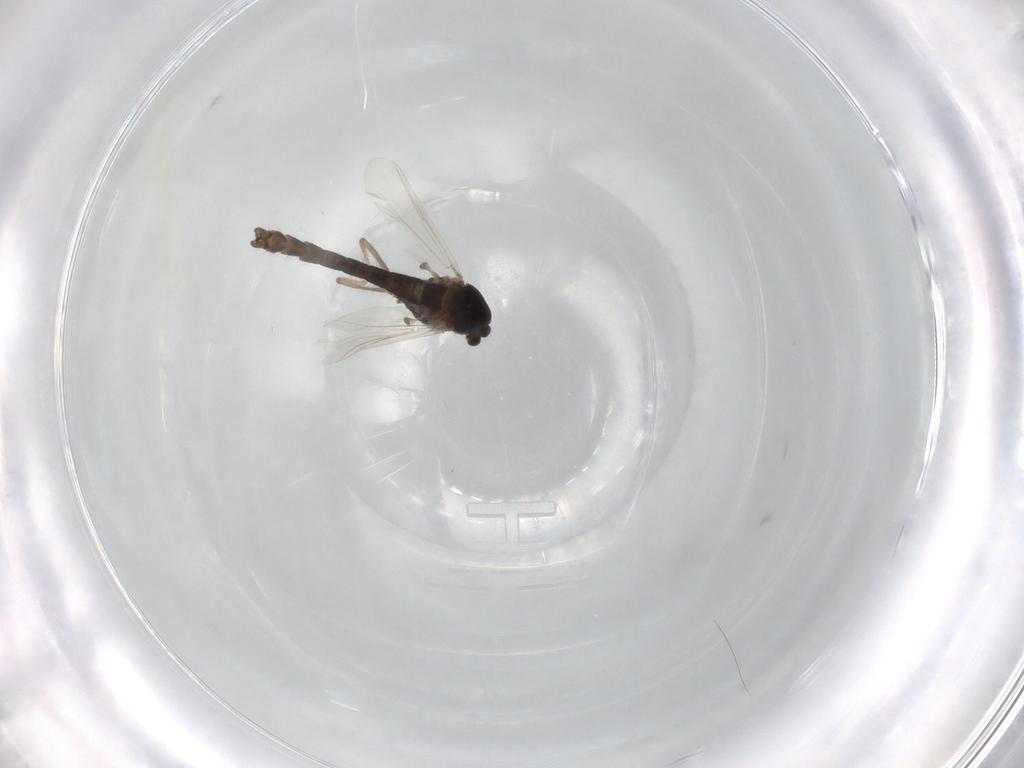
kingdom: Animalia
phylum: Arthropoda
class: Insecta
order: Diptera
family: Cecidomyiidae
